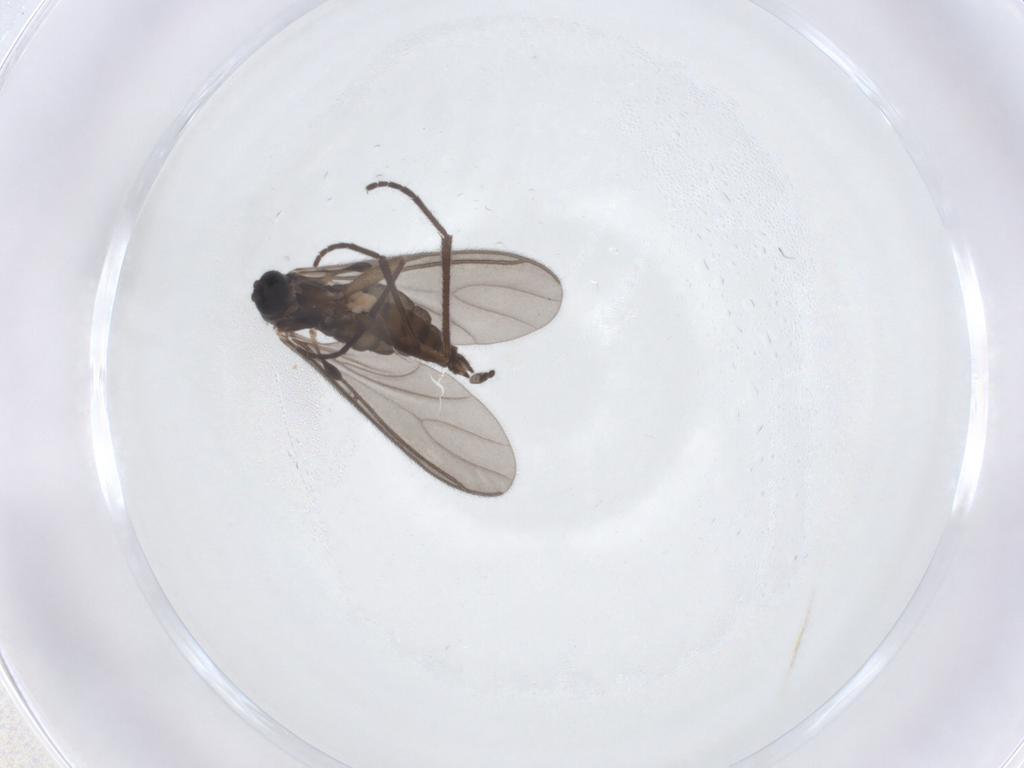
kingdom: Animalia
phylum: Arthropoda
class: Insecta
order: Diptera
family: Sciaridae
